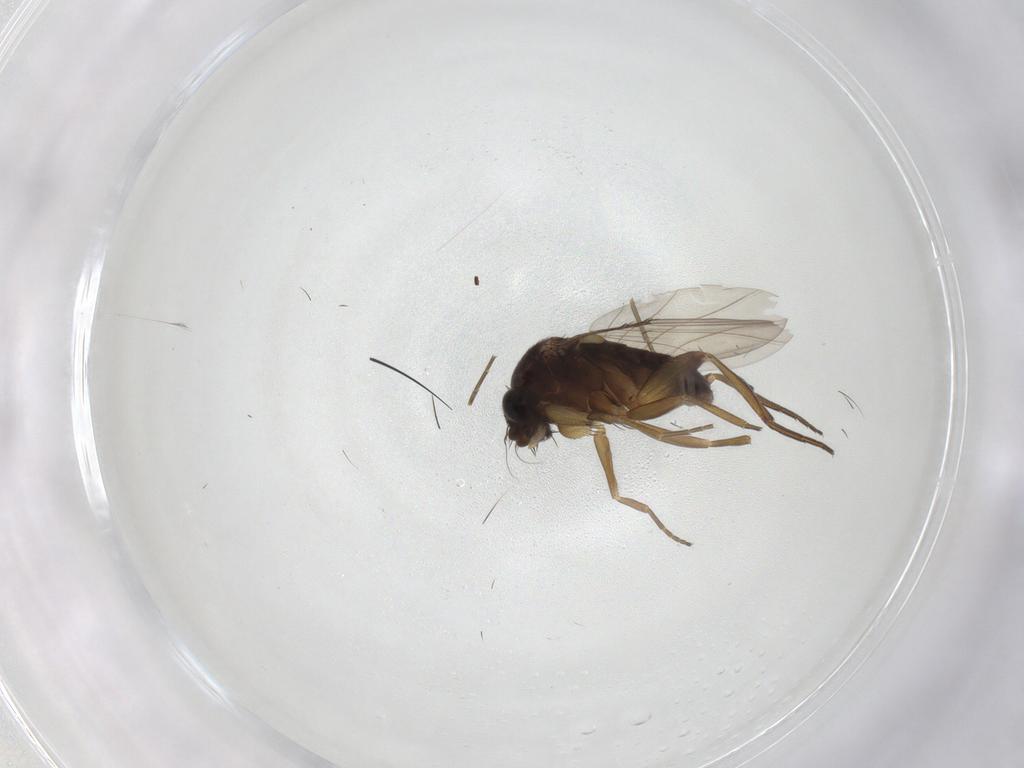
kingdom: Animalia
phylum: Arthropoda
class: Insecta
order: Diptera
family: Phoridae
